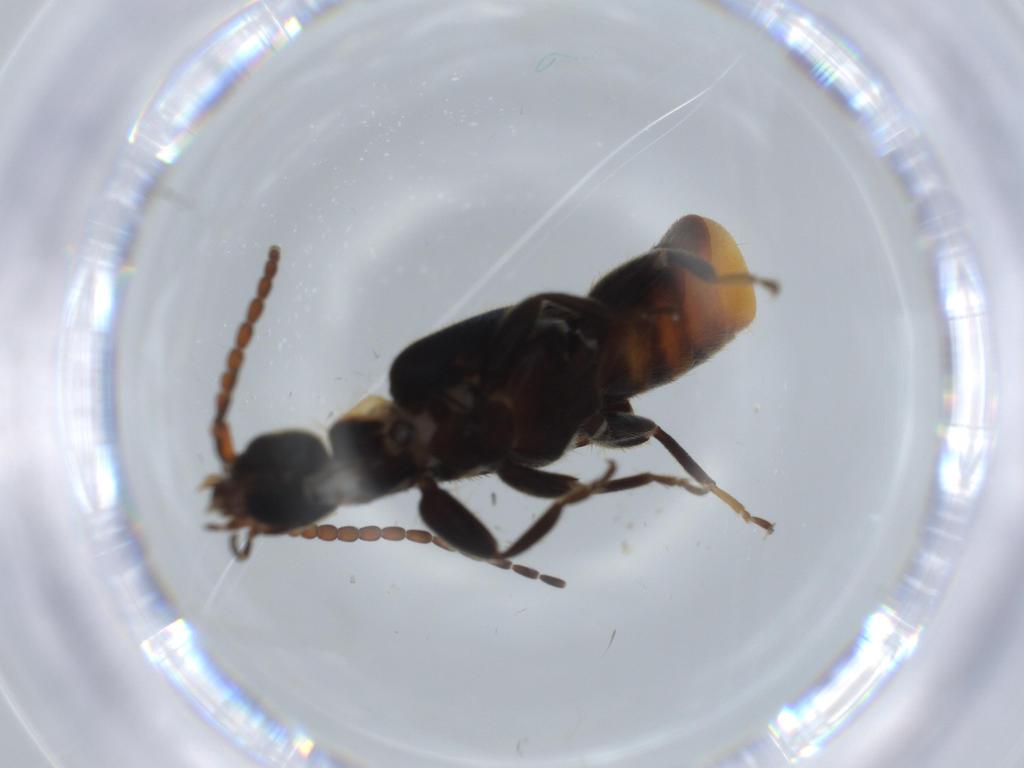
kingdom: Animalia
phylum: Arthropoda
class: Insecta
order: Dermaptera
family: Forficulidae
